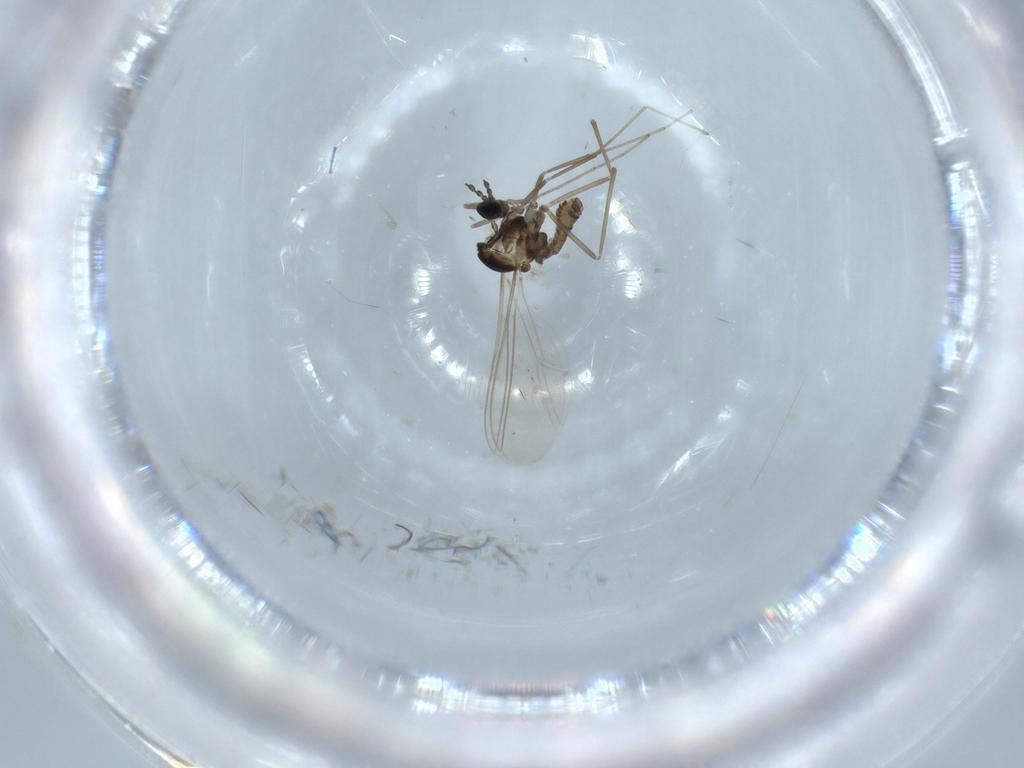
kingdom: Animalia
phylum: Arthropoda
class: Insecta
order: Diptera
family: Cecidomyiidae
